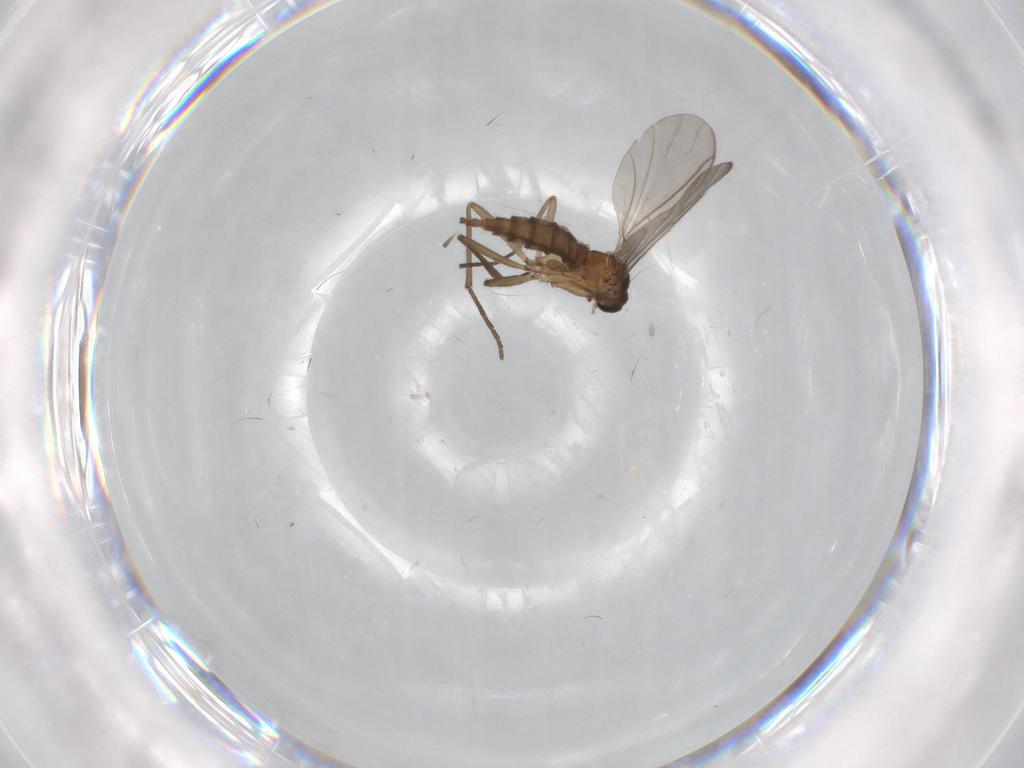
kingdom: Animalia
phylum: Arthropoda
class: Insecta
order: Diptera
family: Sciaridae
